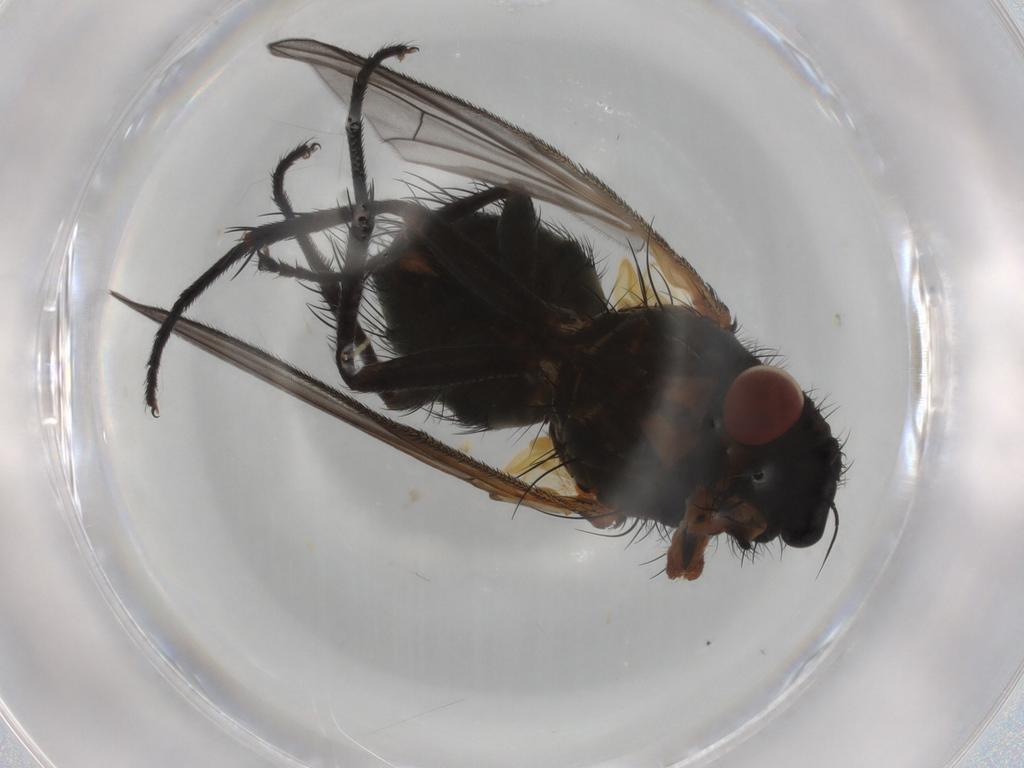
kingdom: Animalia
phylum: Arthropoda
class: Insecta
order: Diptera
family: Tachinidae
